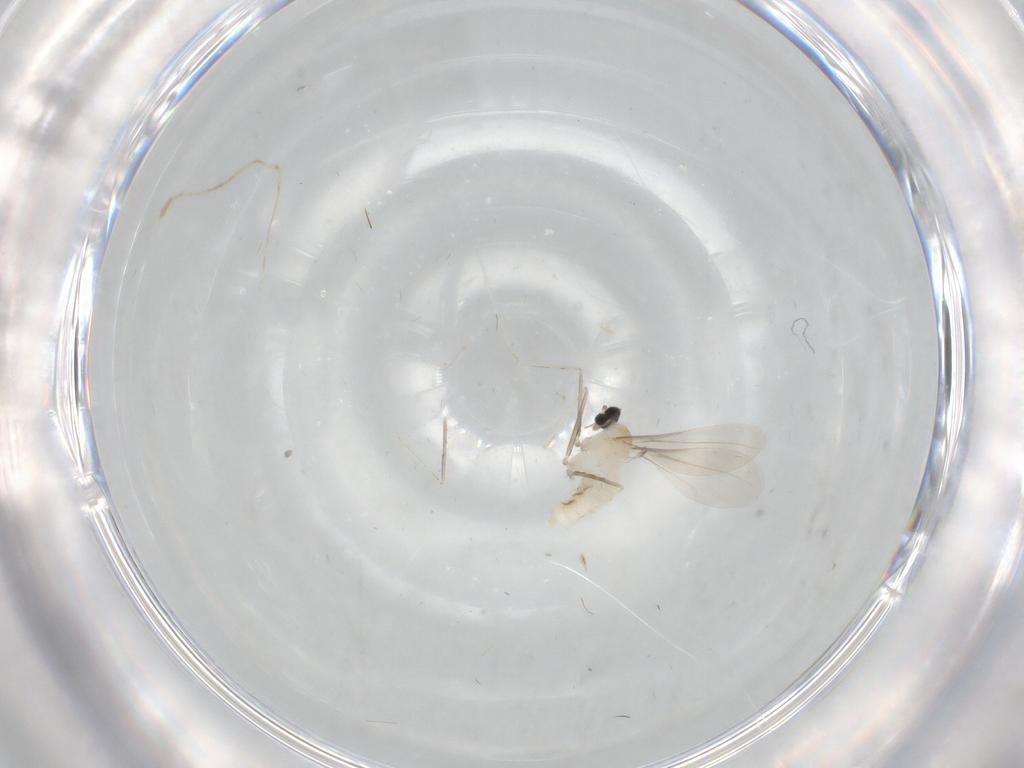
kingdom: Animalia
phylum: Arthropoda
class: Insecta
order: Diptera
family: Cecidomyiidae
